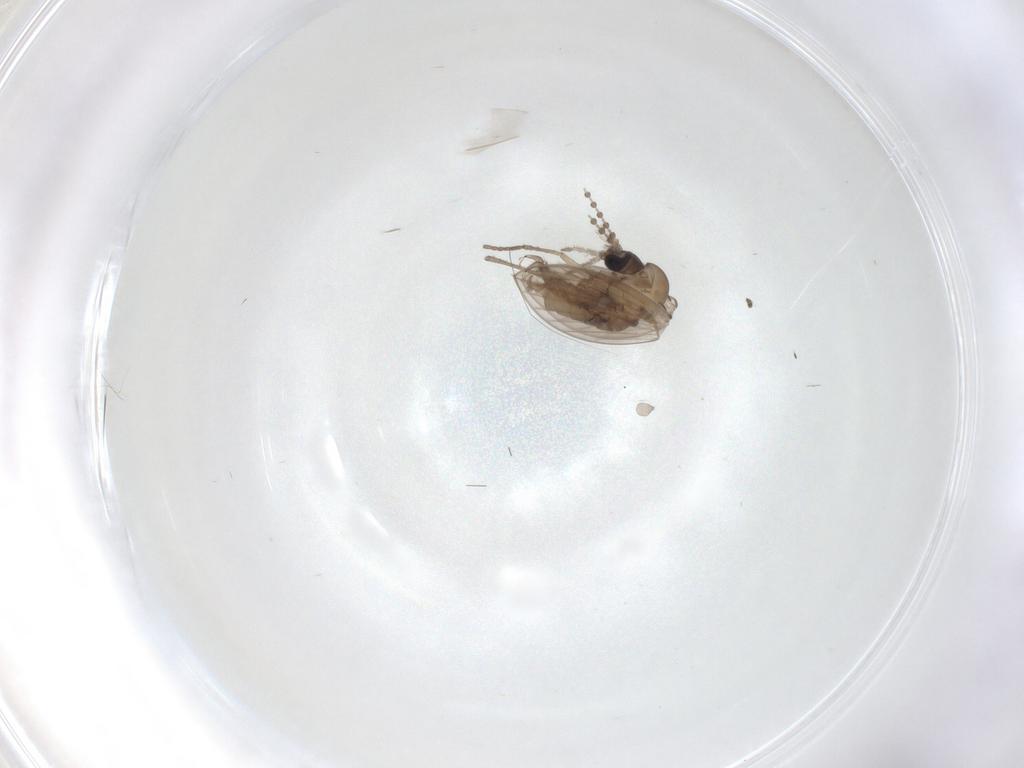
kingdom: Animalia
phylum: Arthropoda
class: Insecta
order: Diptera
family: Psychodidae
